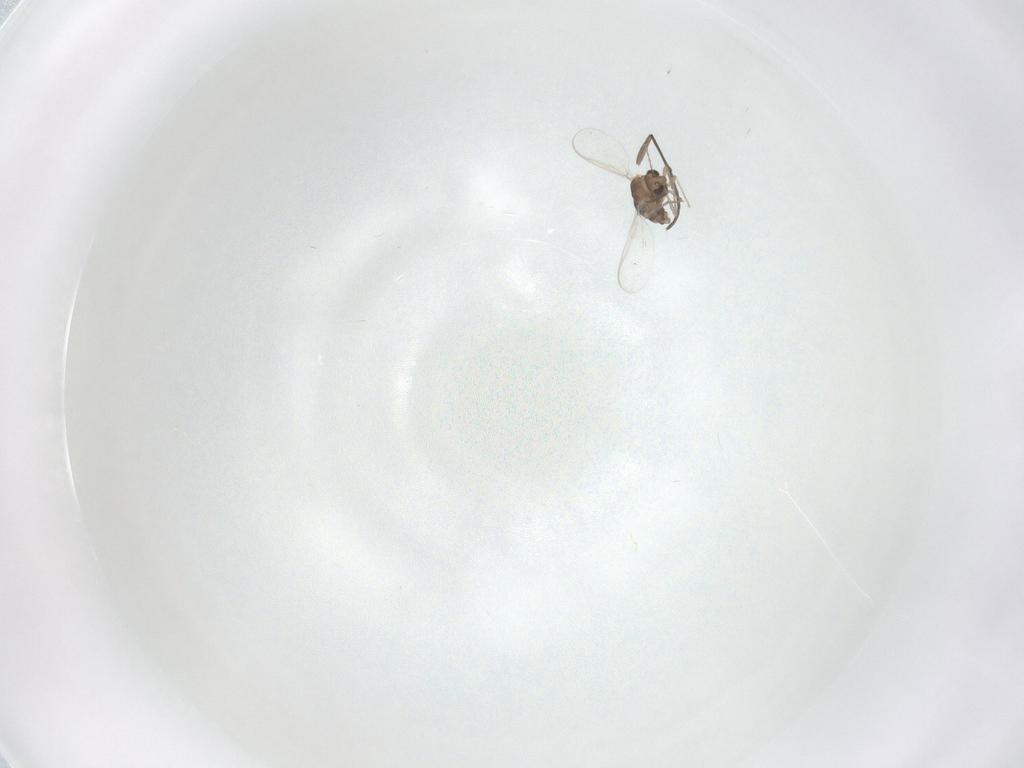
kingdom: Animalia
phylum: Arthropoda
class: Insecta
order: Diptera
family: Chironomidae
